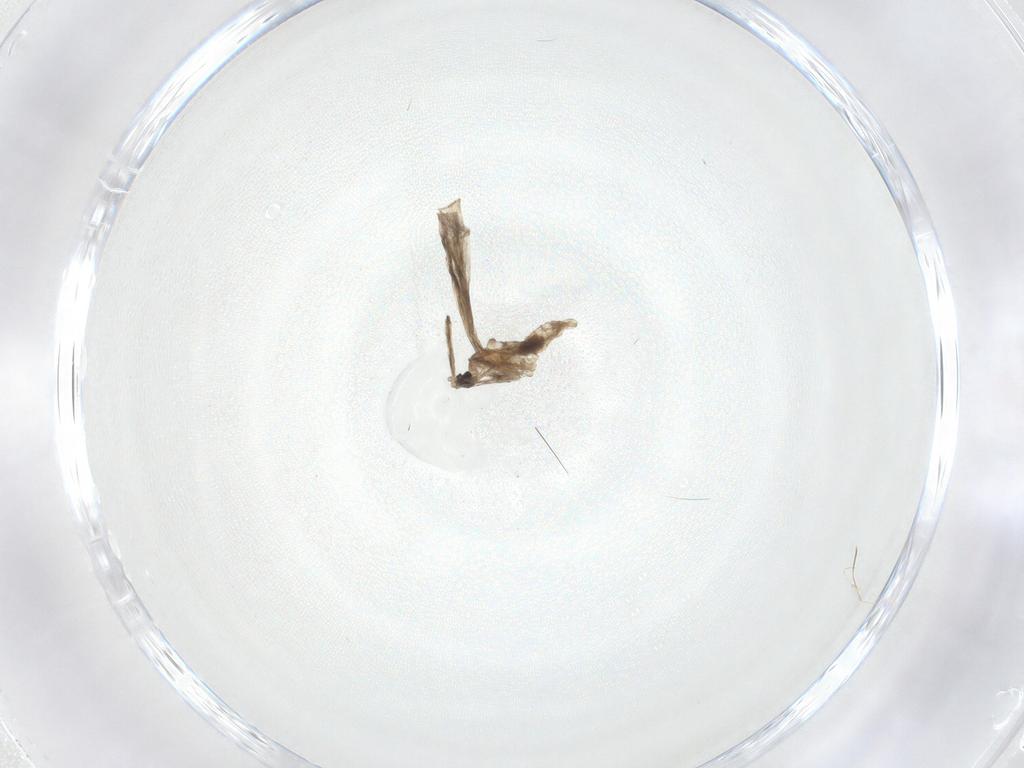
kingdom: Animalia
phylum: Arthropoda
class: Insecta
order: Diptera
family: Cecidomyiidae
